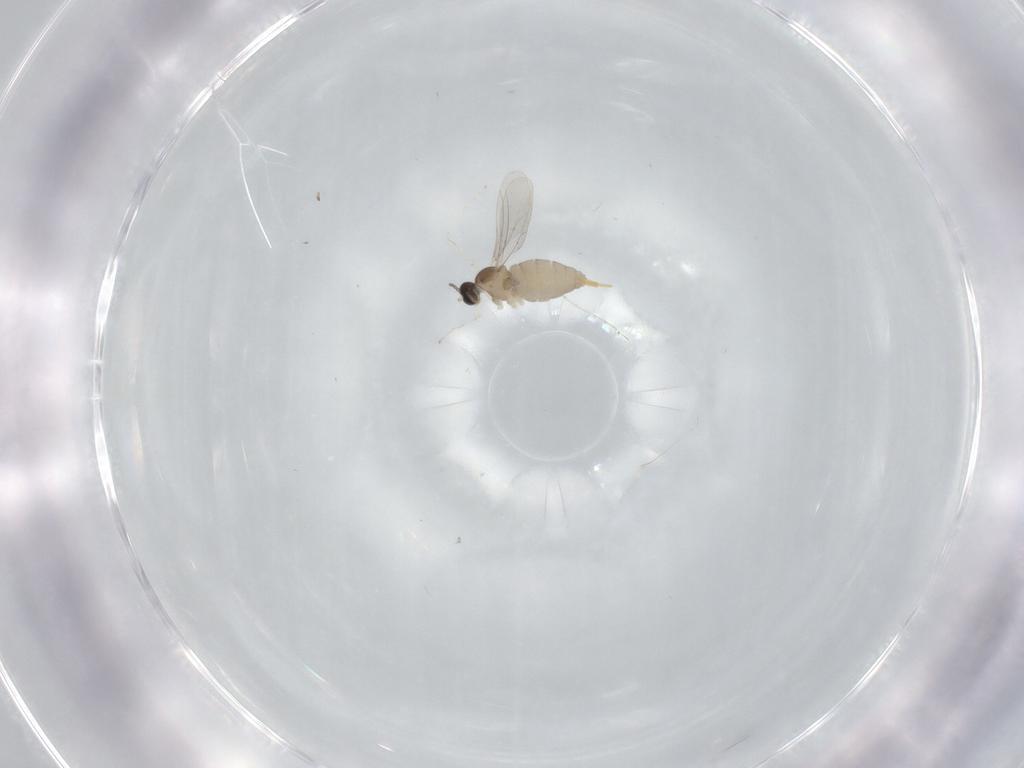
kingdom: Animalia
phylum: Arthropoda
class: Insecta
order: Diptera
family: Cecidomyiidae
